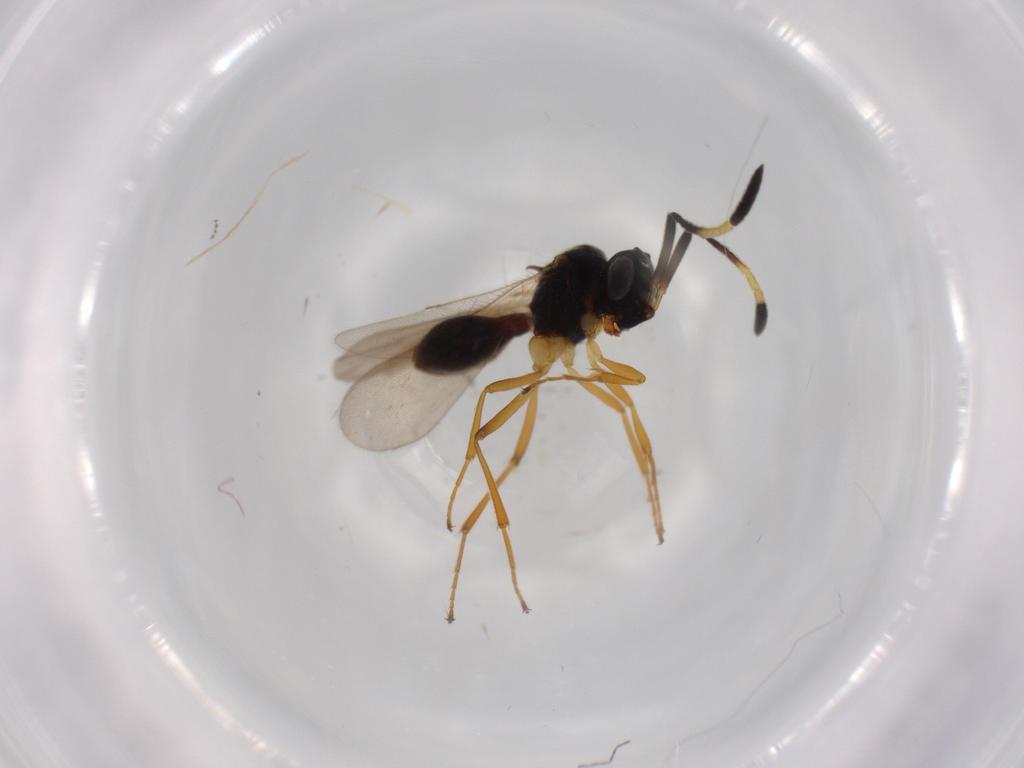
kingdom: Animalia
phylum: Arthropoda
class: Insecta
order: Hymenoptera
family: Scelionidae
